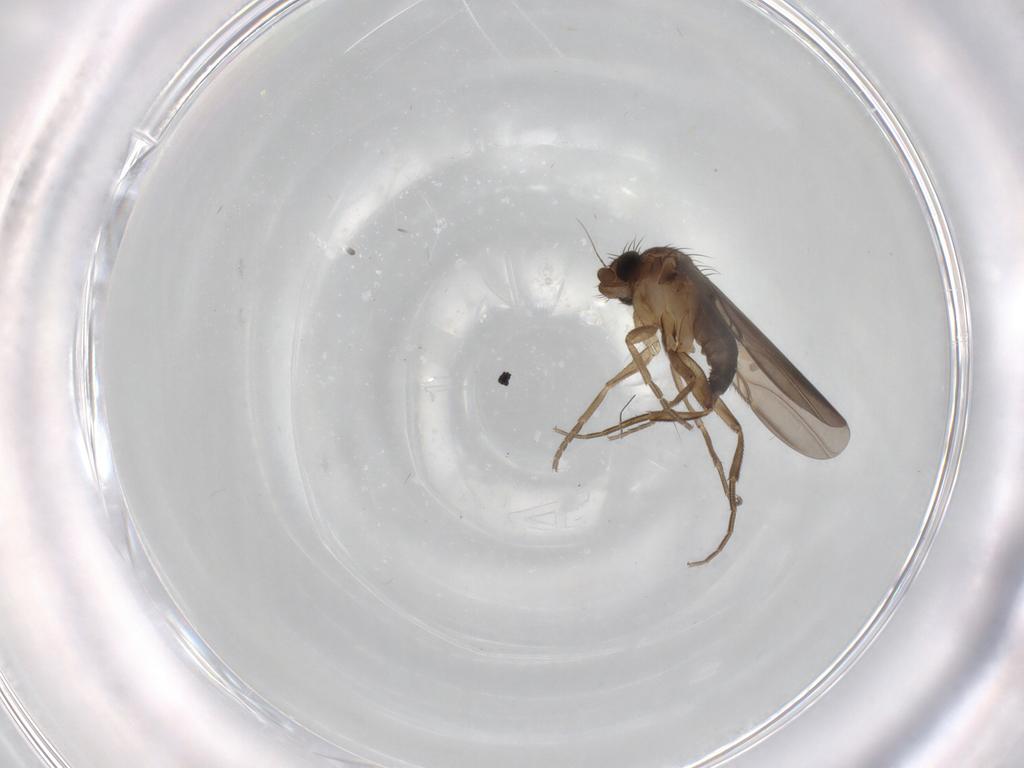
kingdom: Animalia
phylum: Arthropoda
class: Insecta
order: Diptera
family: Phoridae
